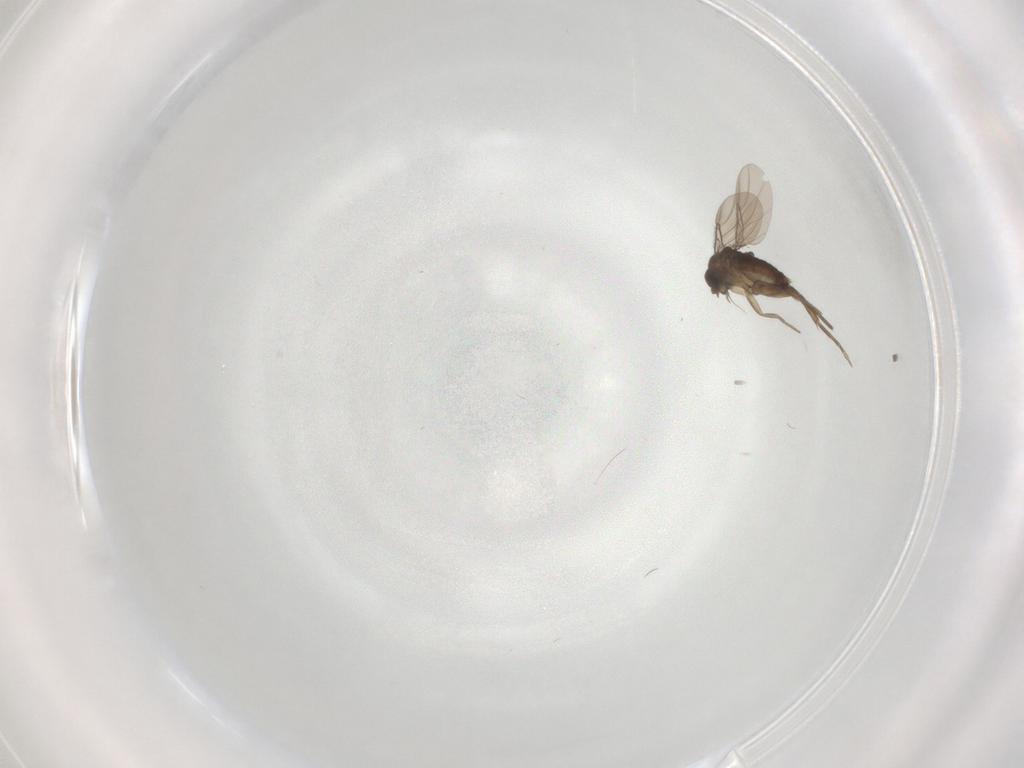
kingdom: Animalia
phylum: Arthropoda
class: Insecta
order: Diptera
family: Phoridae
